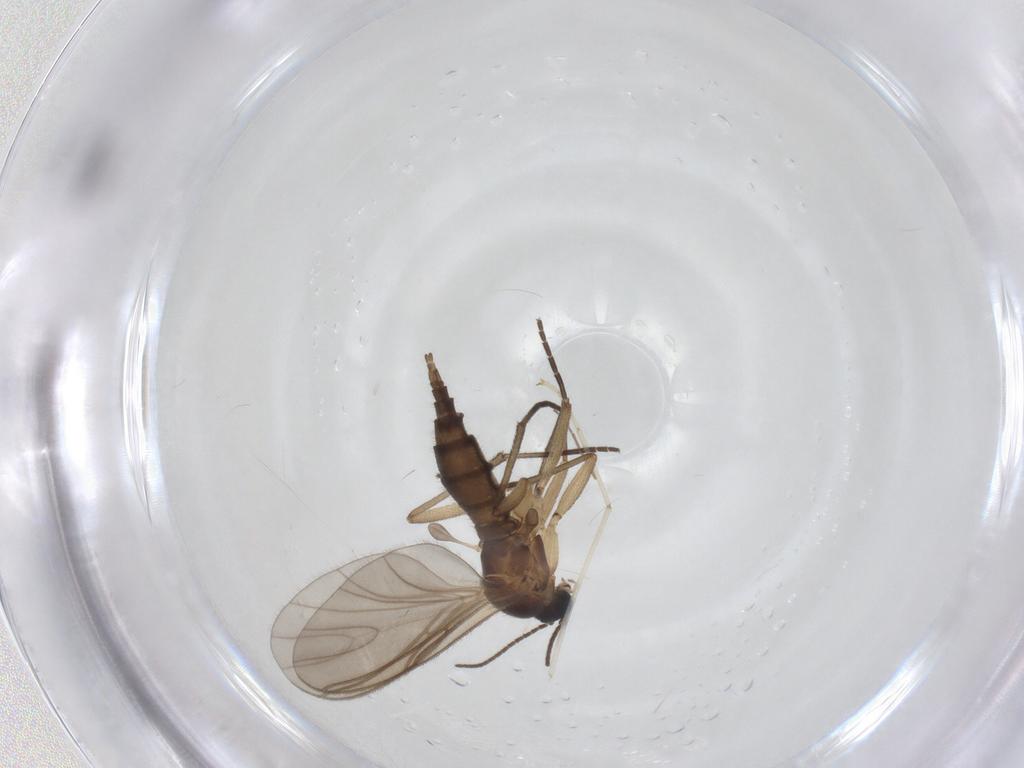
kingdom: Animalia
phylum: Arthropoda
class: Insecta
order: Diptera
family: Sciaridae
